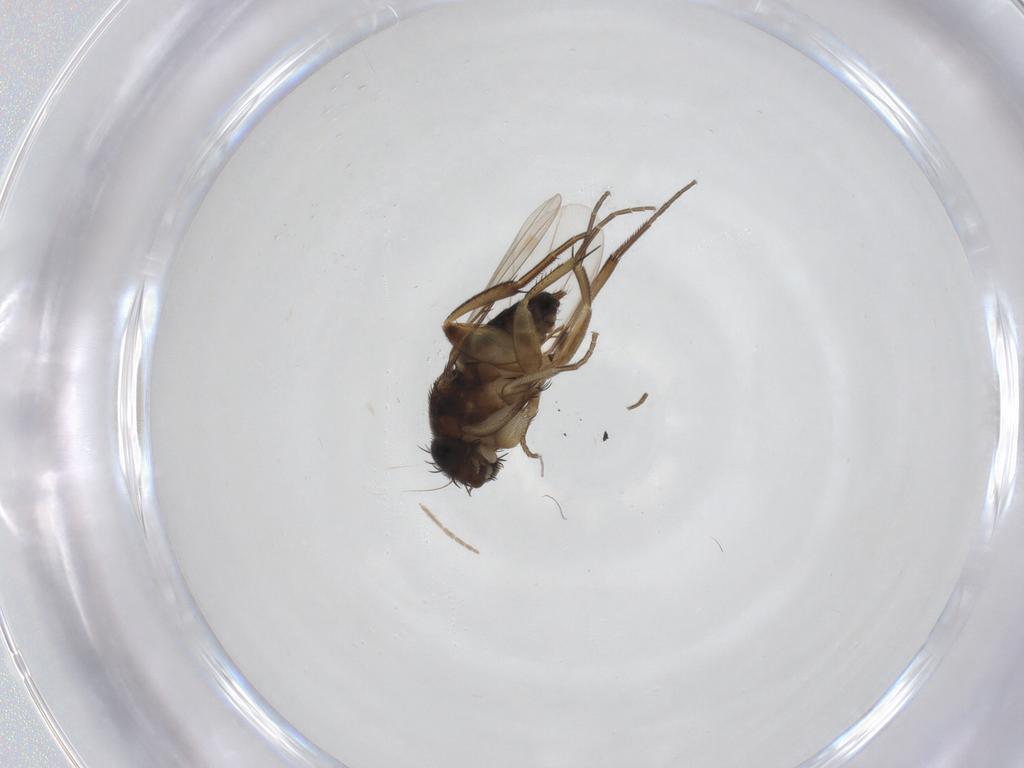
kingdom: Animalia
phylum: Arthropoda
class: Insecta
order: Diptera
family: Phoridae
